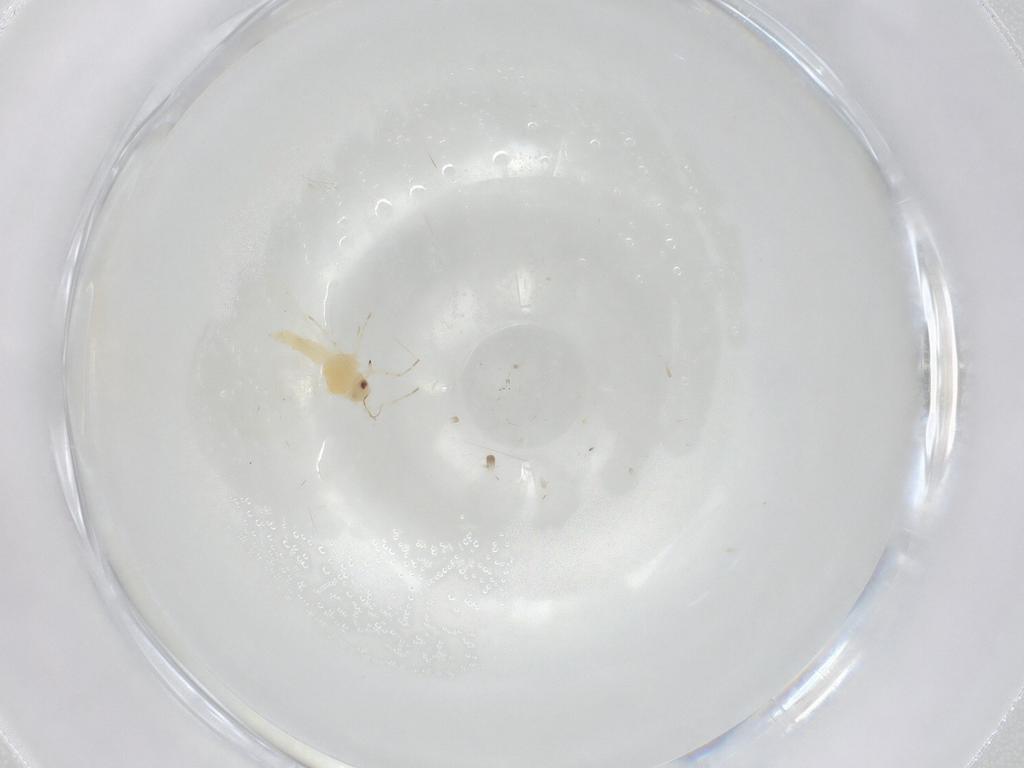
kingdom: Animalia
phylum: Arthropoda
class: Insecta
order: Hemiptera
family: Aleyrodidae
